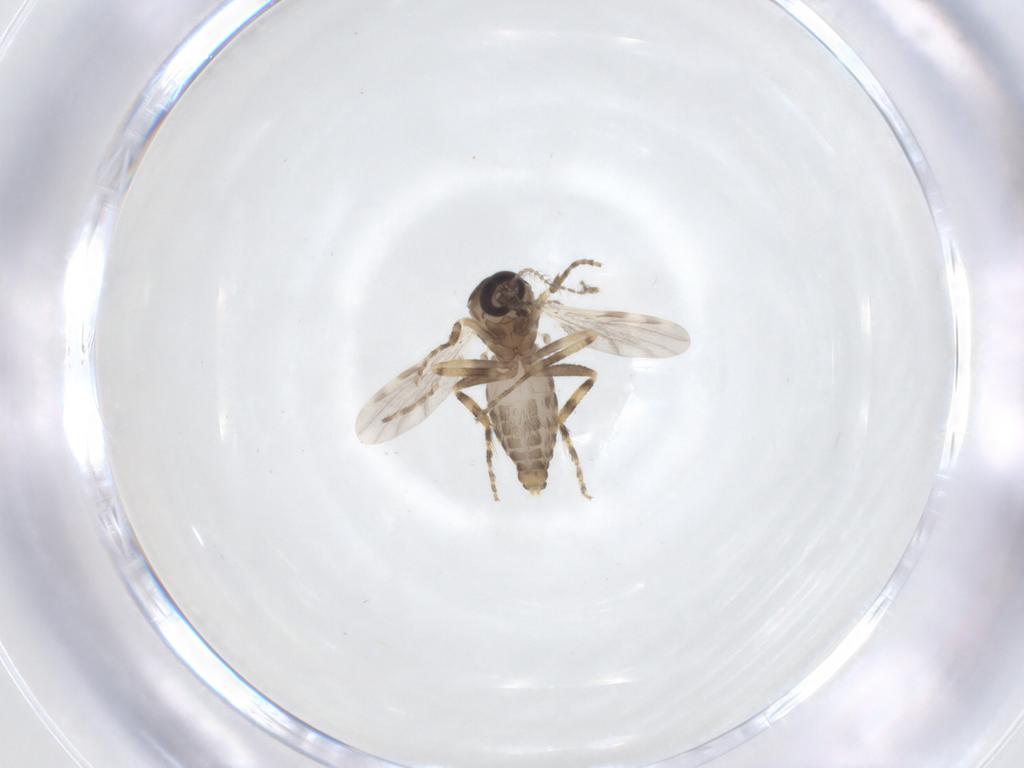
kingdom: Animalia
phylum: Arthropoda
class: Insecta
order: Diptera
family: Ceratopogonidae
